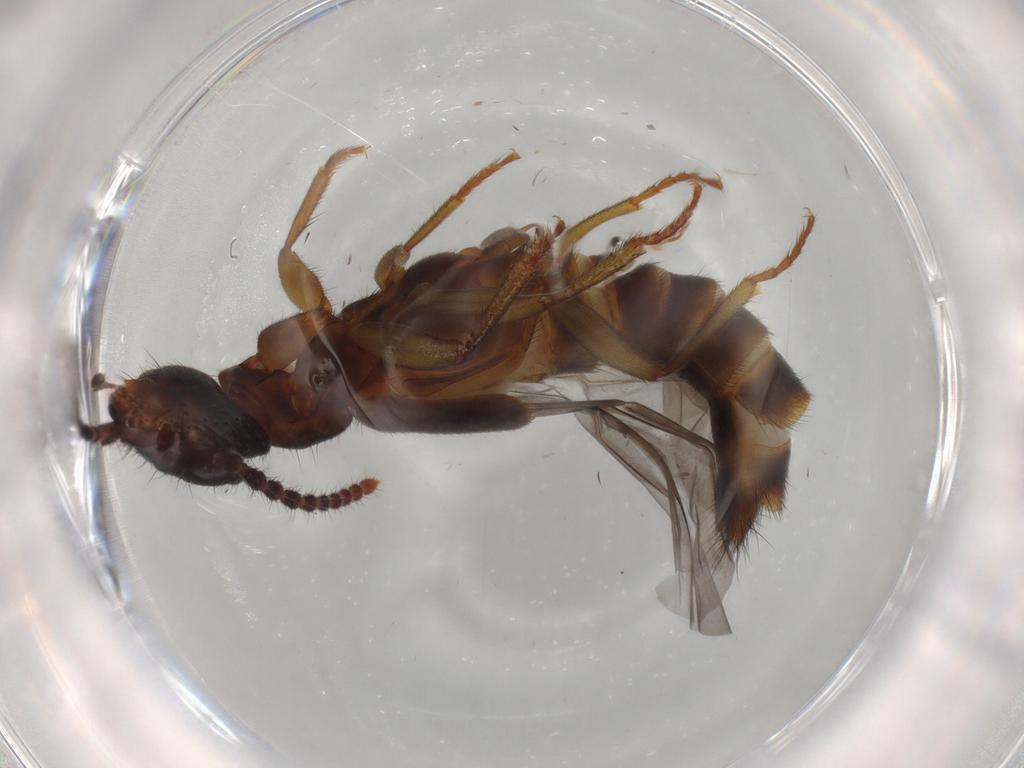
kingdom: Animalia
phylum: Arthropoda
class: Insecta
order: Coleoptera
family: Staphylinidae
